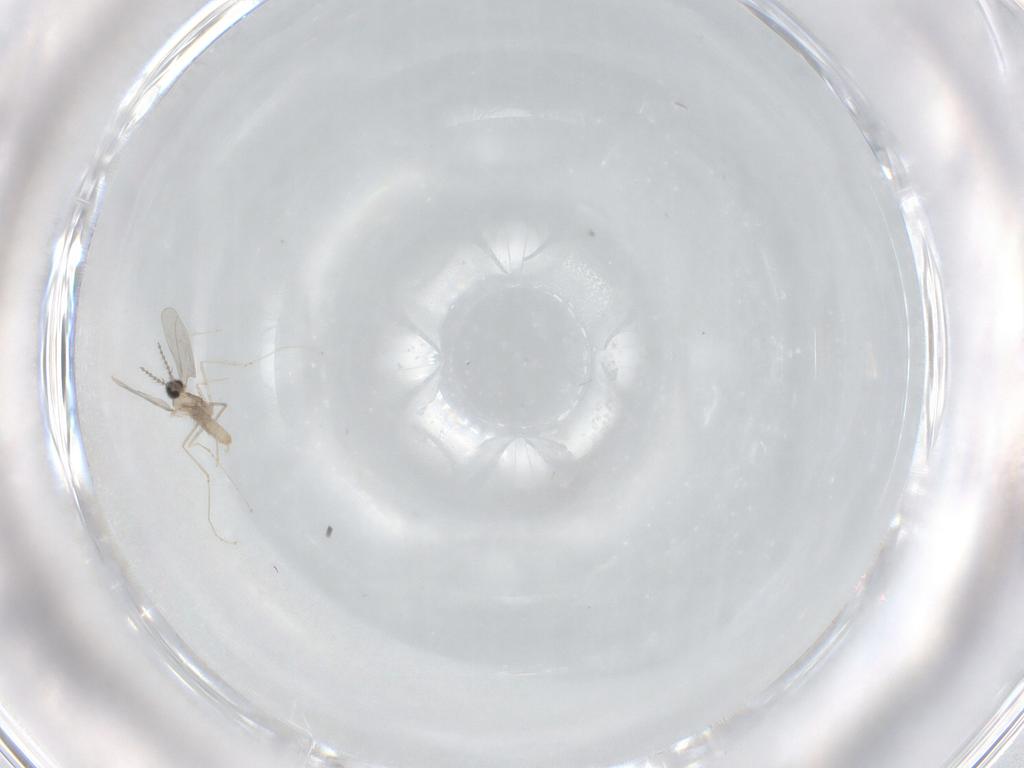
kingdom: Animalia
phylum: Arthropoda
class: Insecta
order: Diptera
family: Cecidomyiidae
